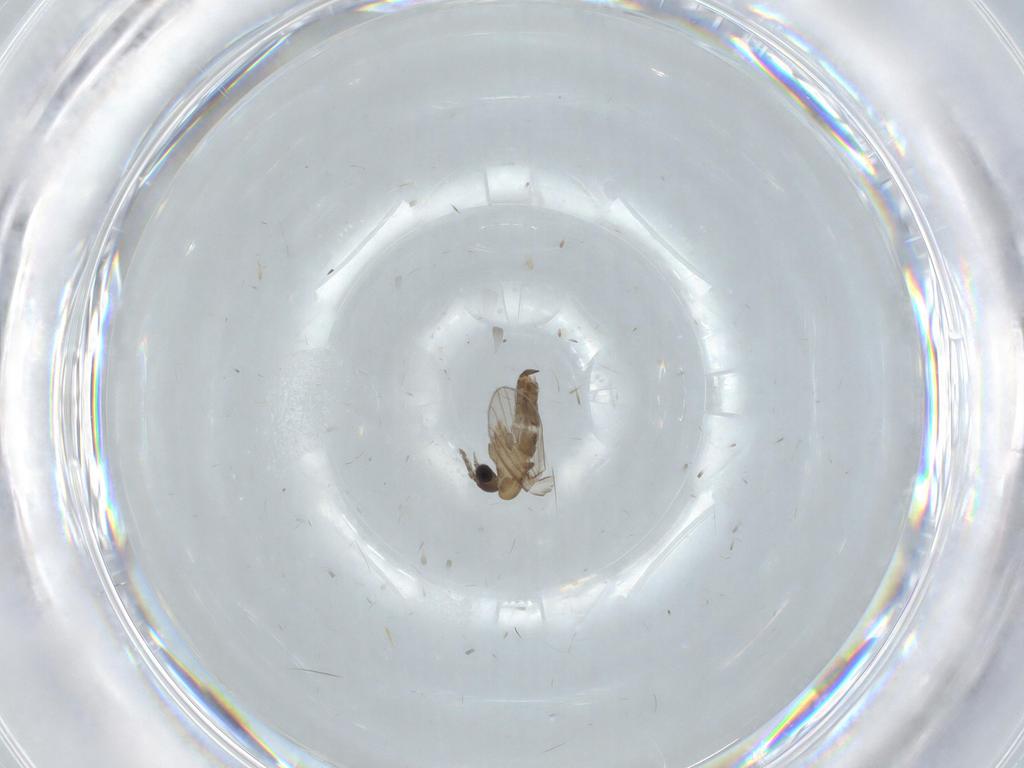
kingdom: Animalia
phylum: Arthropoda
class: Insecta
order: Diptera
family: Psychodidae
